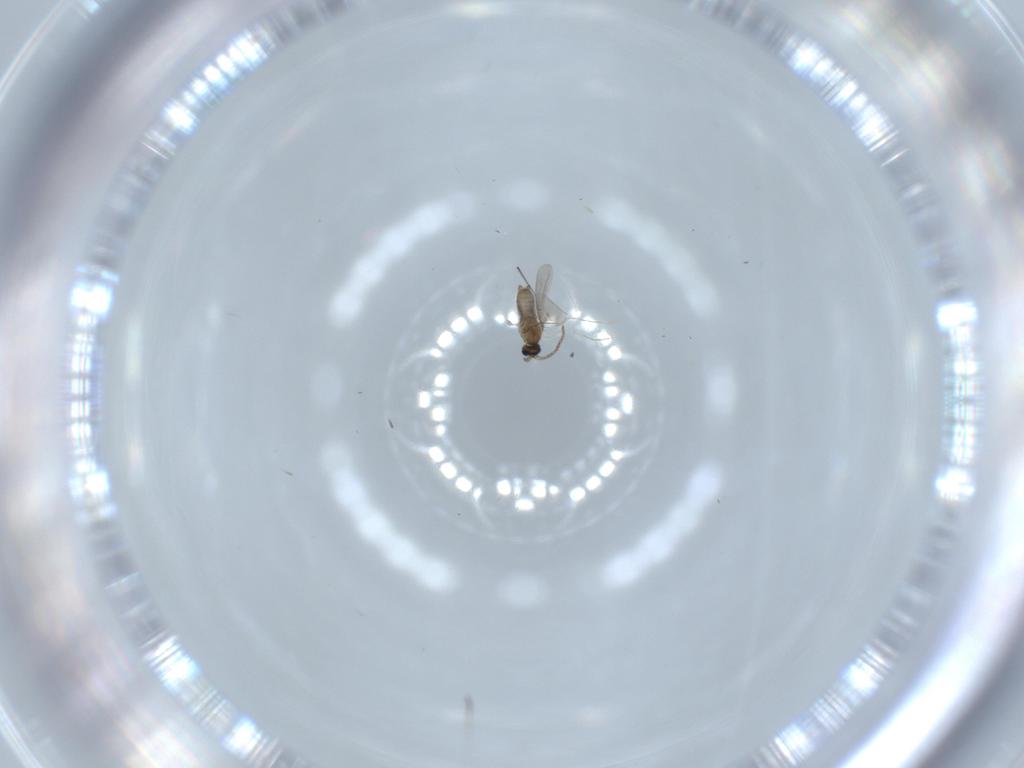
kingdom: Animalia
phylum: Arthropoda
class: Insecta
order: Diptera
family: Cecidomyiidae
